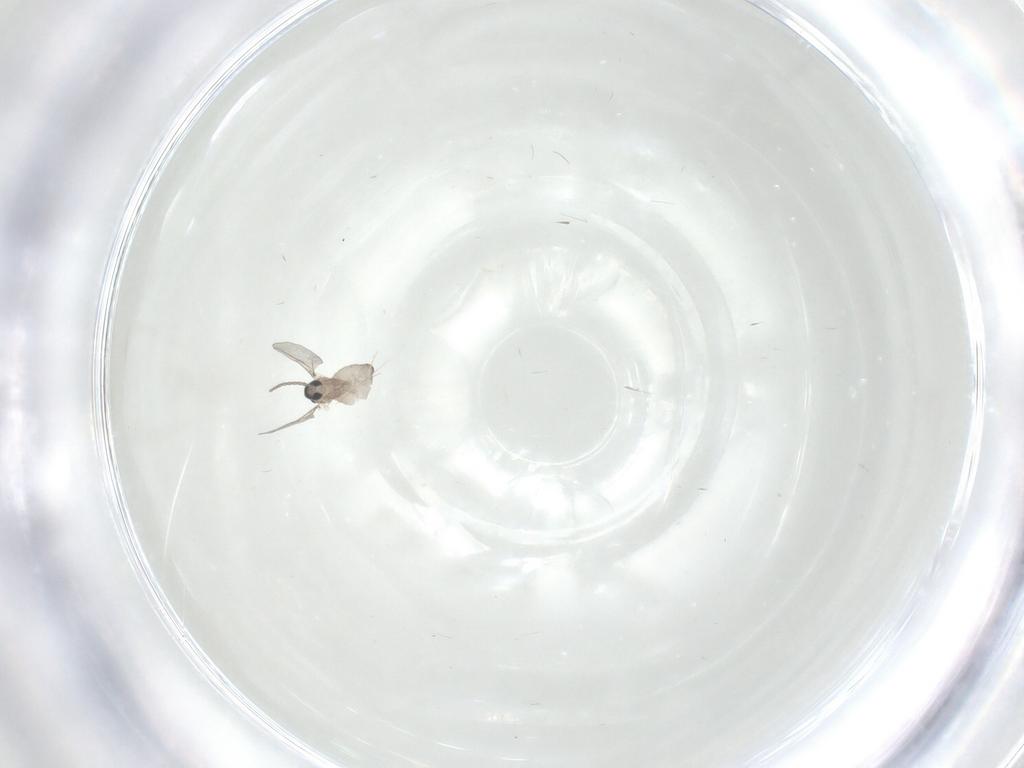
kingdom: Animalia
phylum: Arthropoda
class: Insecta
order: Diptera
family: Cecidomyiidae
